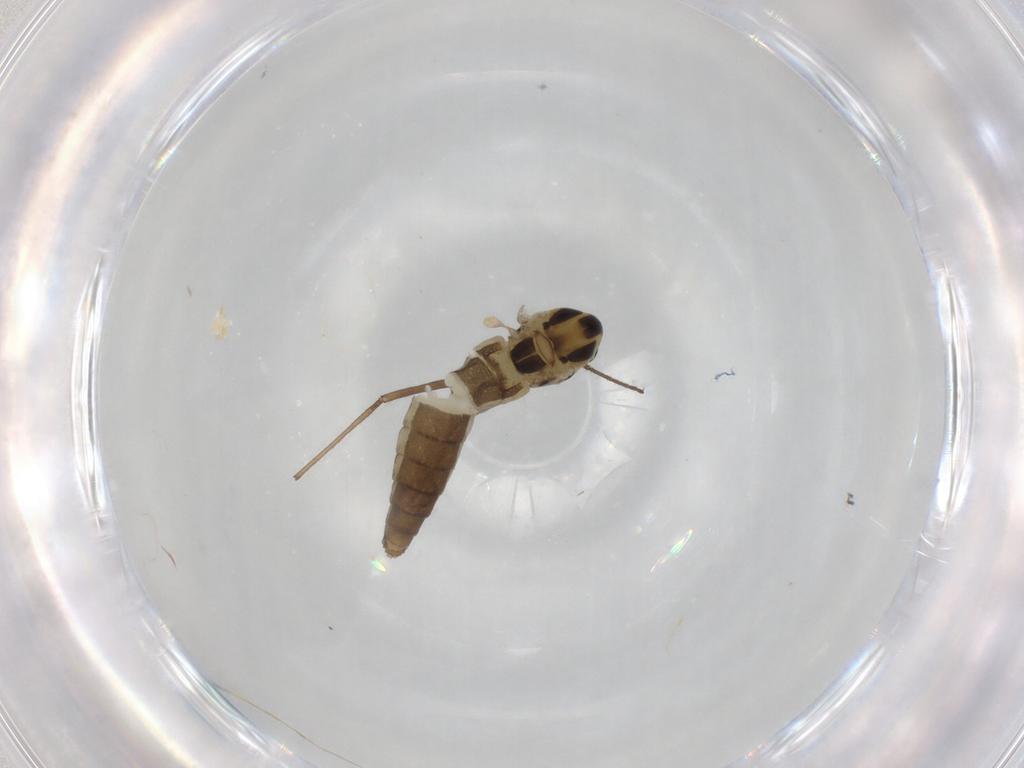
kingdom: Animalia
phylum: Arthropoda
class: Insecta
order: Diptera
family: Chironomidae
